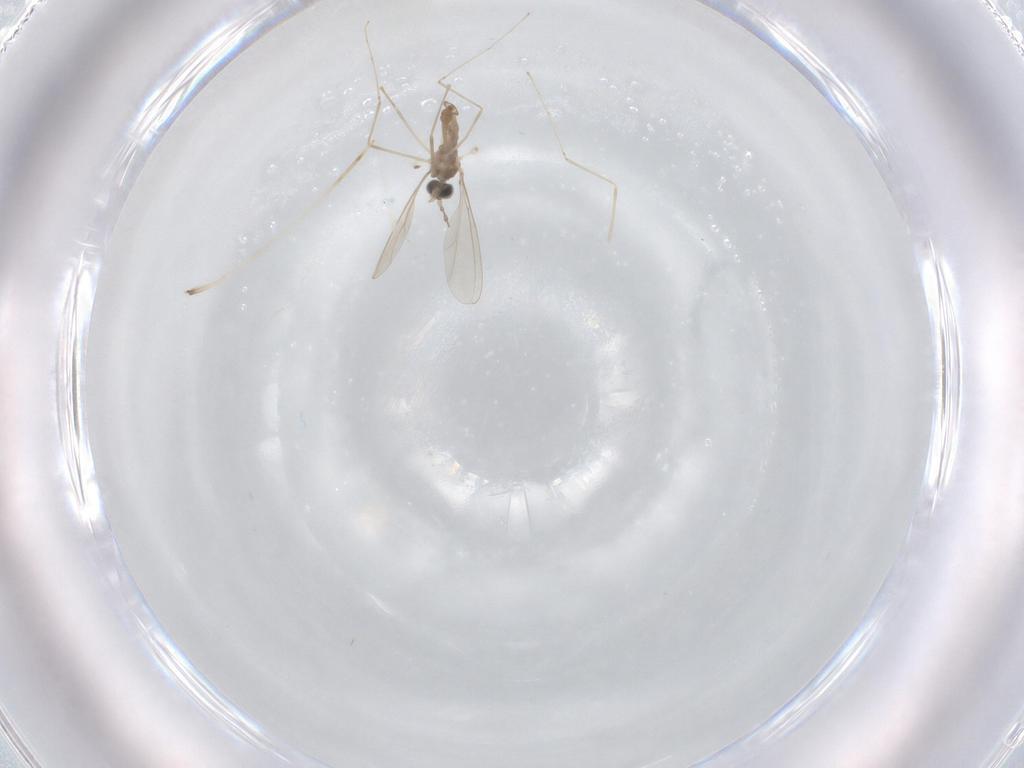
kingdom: Animalia
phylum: Arthropoda
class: Insecta
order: Diptera
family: Cecidomyiidae
